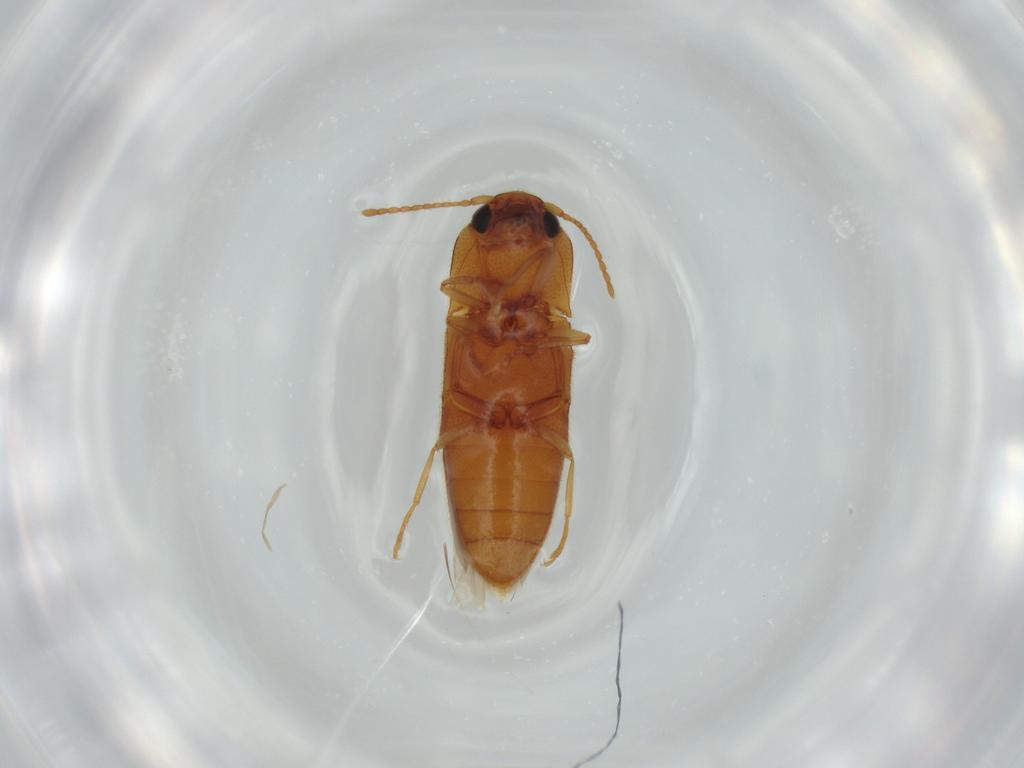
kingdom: Animalia
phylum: Arthropoda
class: Insecta
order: Coleoptera
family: Elateridae
